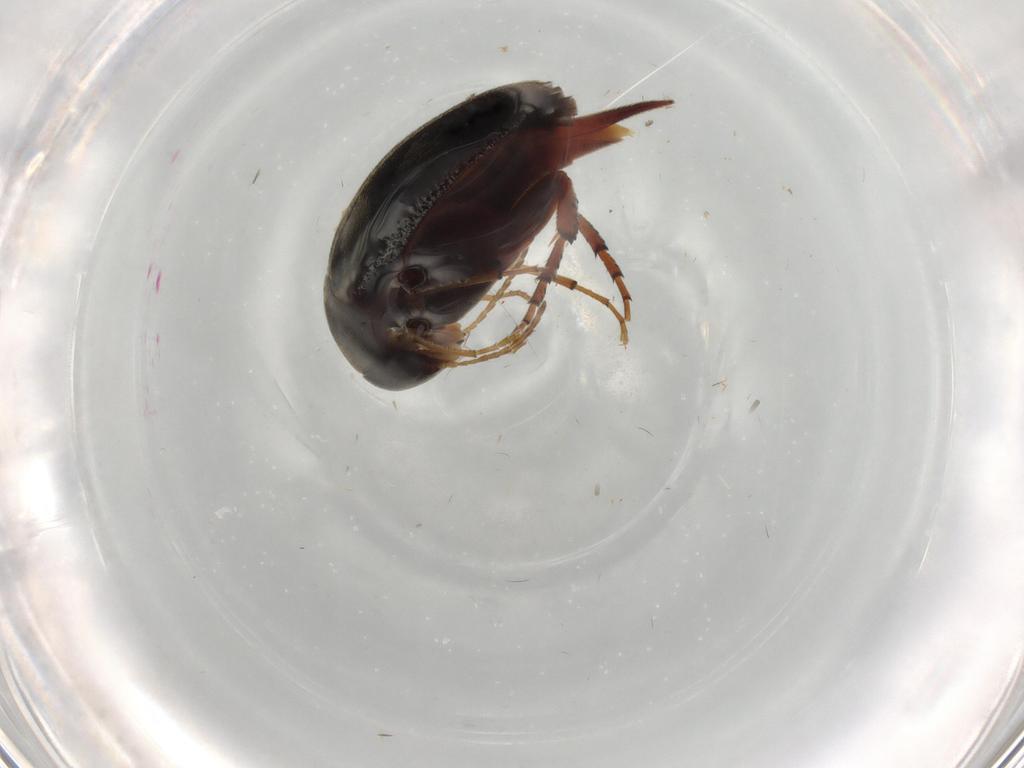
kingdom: Animalia
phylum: Arthropoda
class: Insecta
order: Coleoptera
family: Mordellidae
